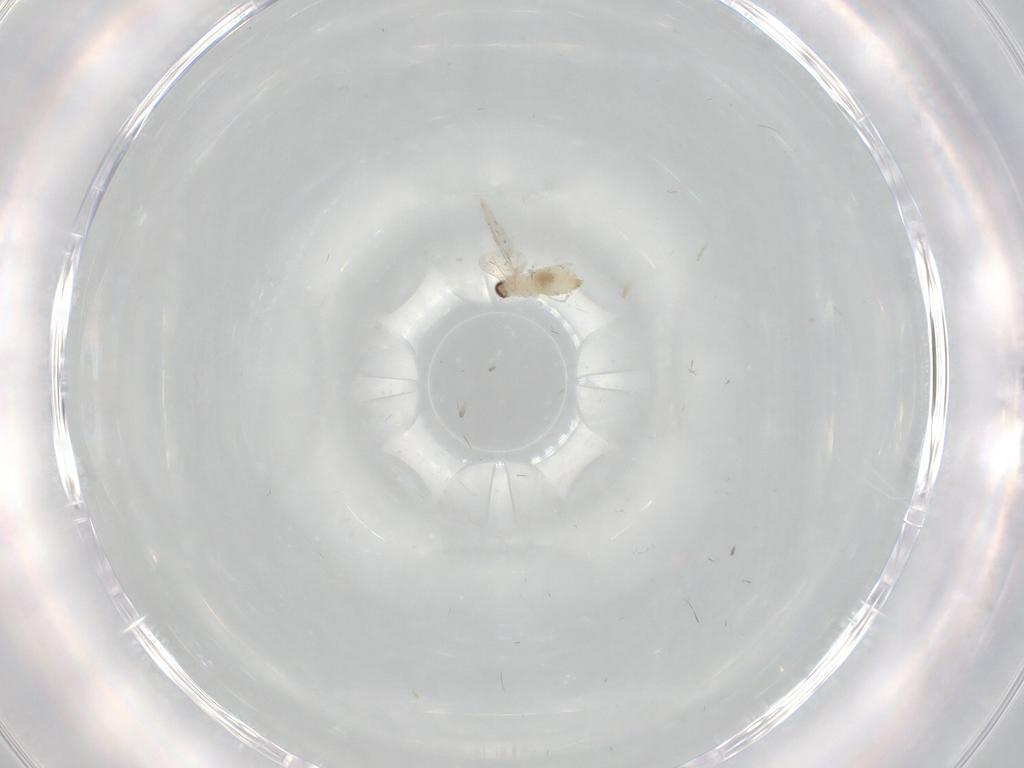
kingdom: Animalia
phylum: Arthropoda
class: Insecta
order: Diptera
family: Cecidomyiidae
